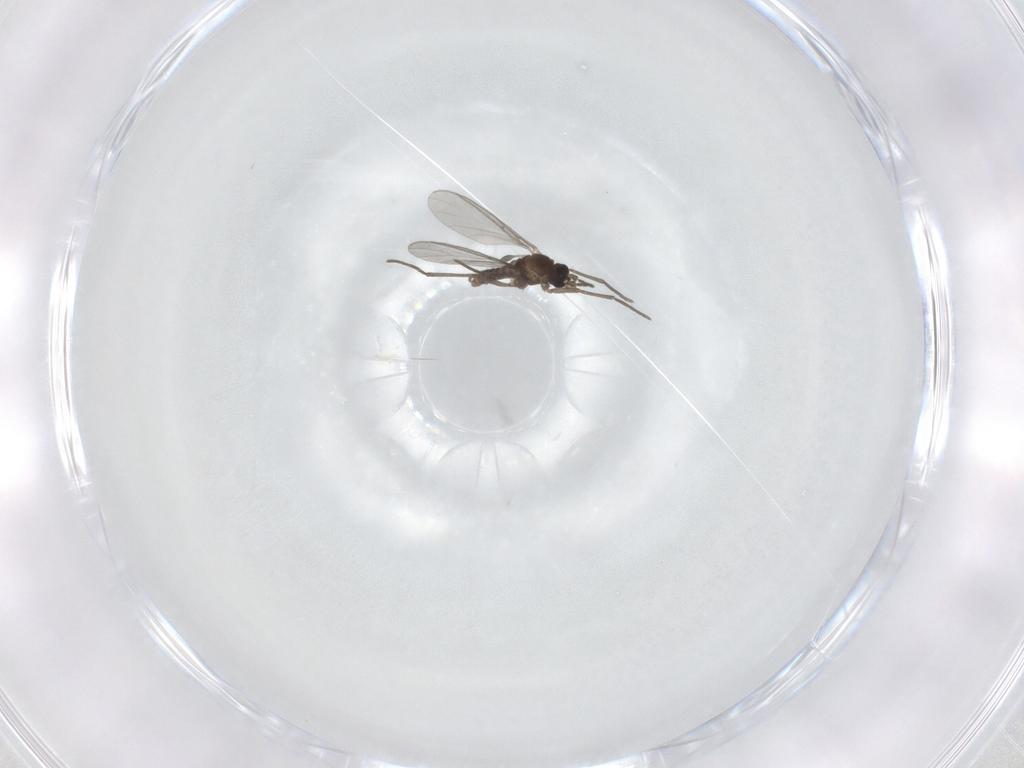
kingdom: Animalia
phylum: Arthropoda
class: Insecta
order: Diptera
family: Sciaridae
